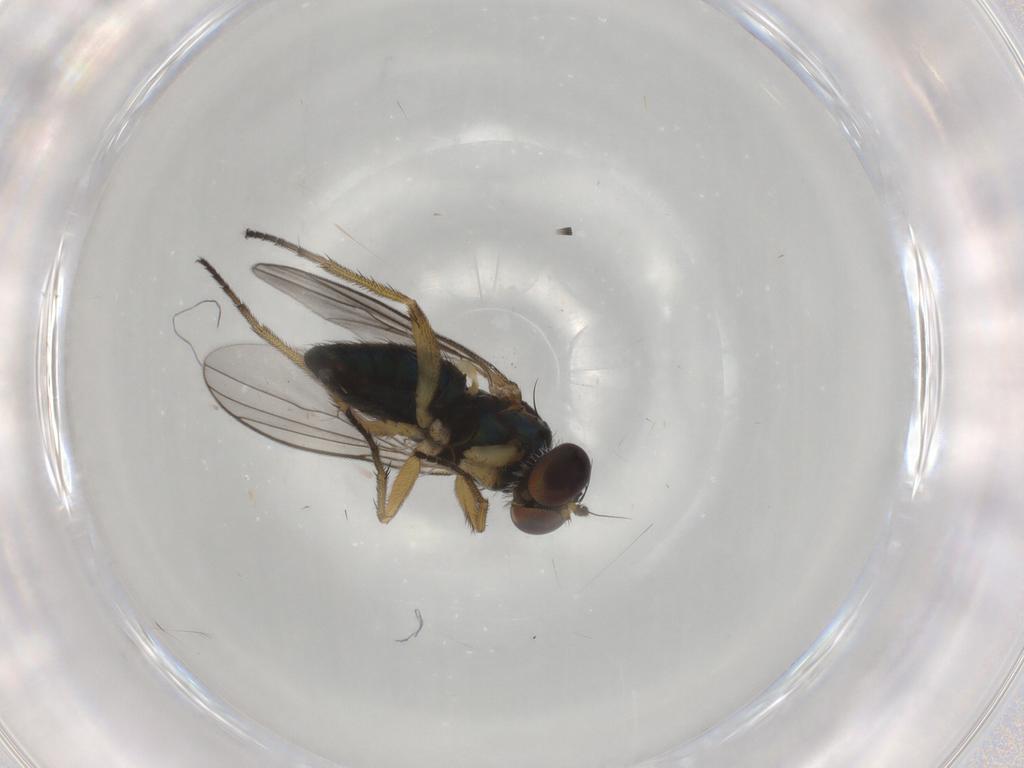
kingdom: Animalia
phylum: Arthropoda
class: Insecta
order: Diptera
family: Dolichopodidae
